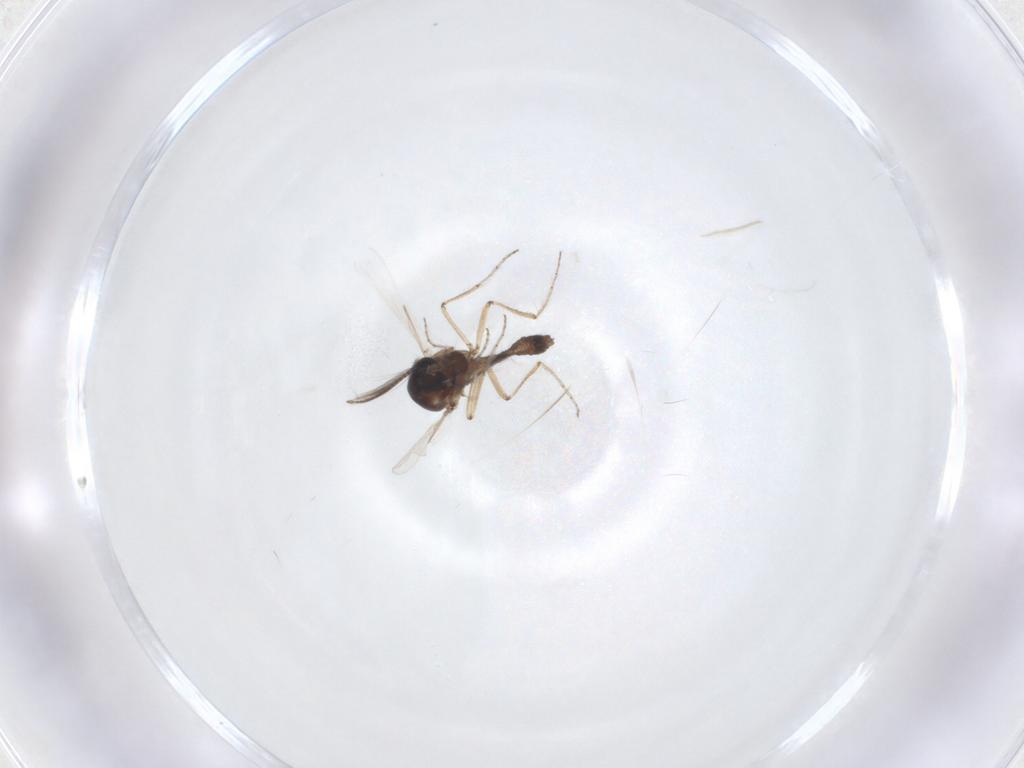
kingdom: Animalia
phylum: Arthropoda
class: Insecta
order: Diptera
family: Ceratopogonidae
